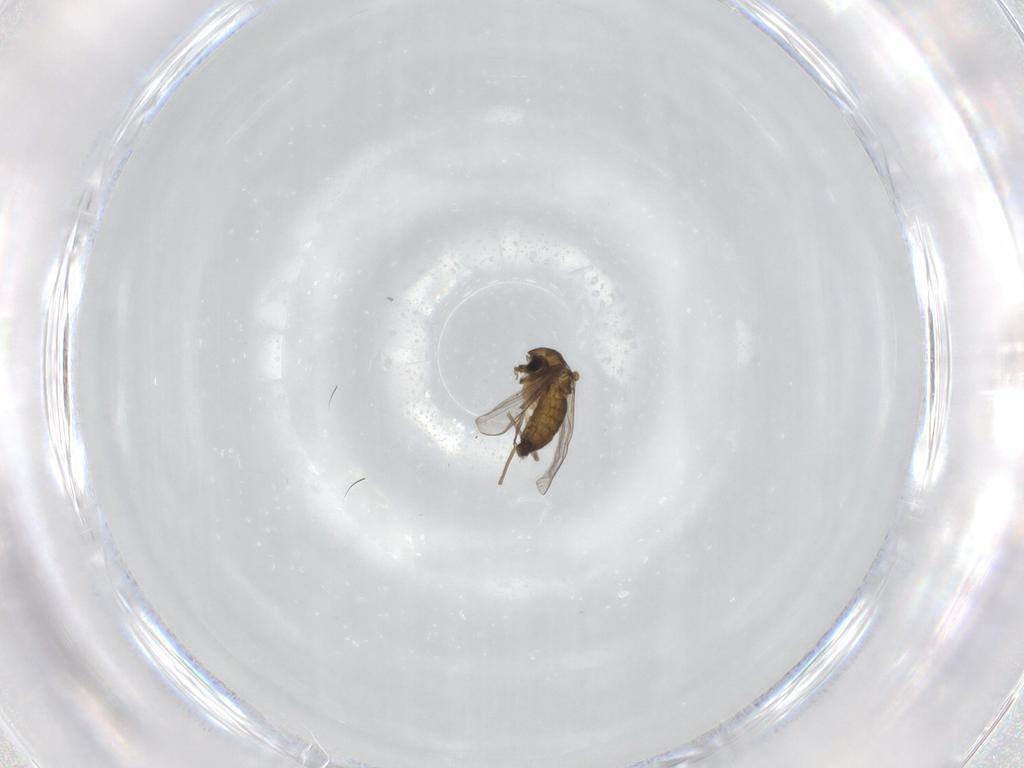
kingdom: Animalia
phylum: Arthropoda
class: Insecta
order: Diptera
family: Chironomidae
